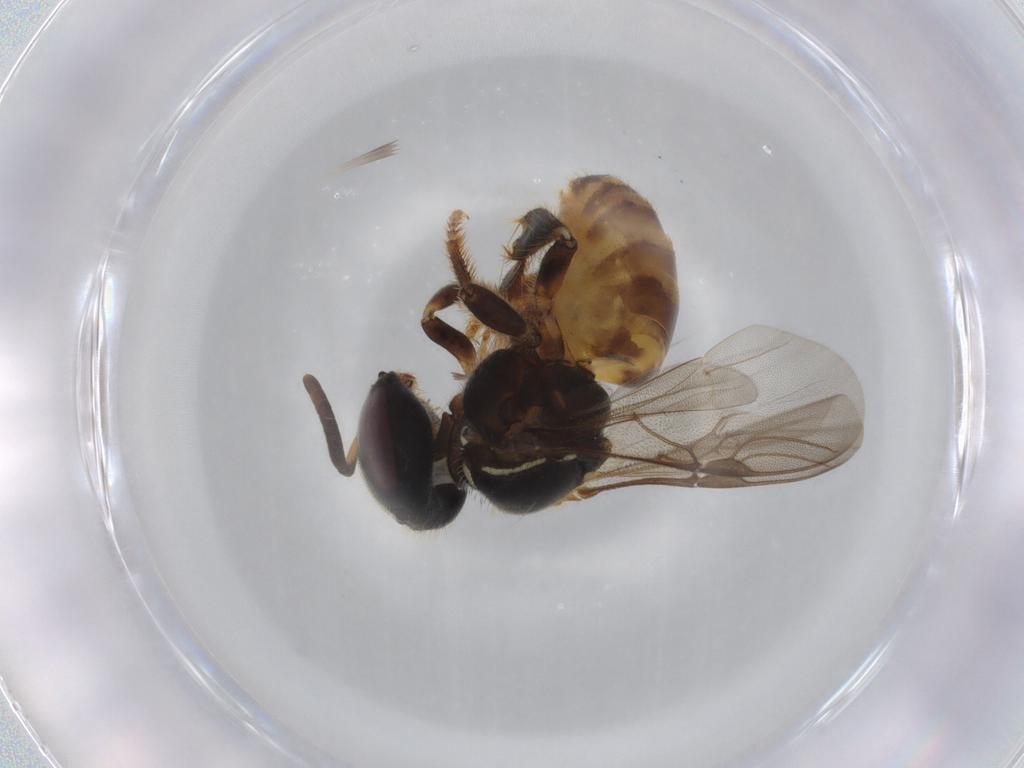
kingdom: Animalia
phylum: Arthropoda
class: Insecta
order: Hymenoptera
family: Apidae
